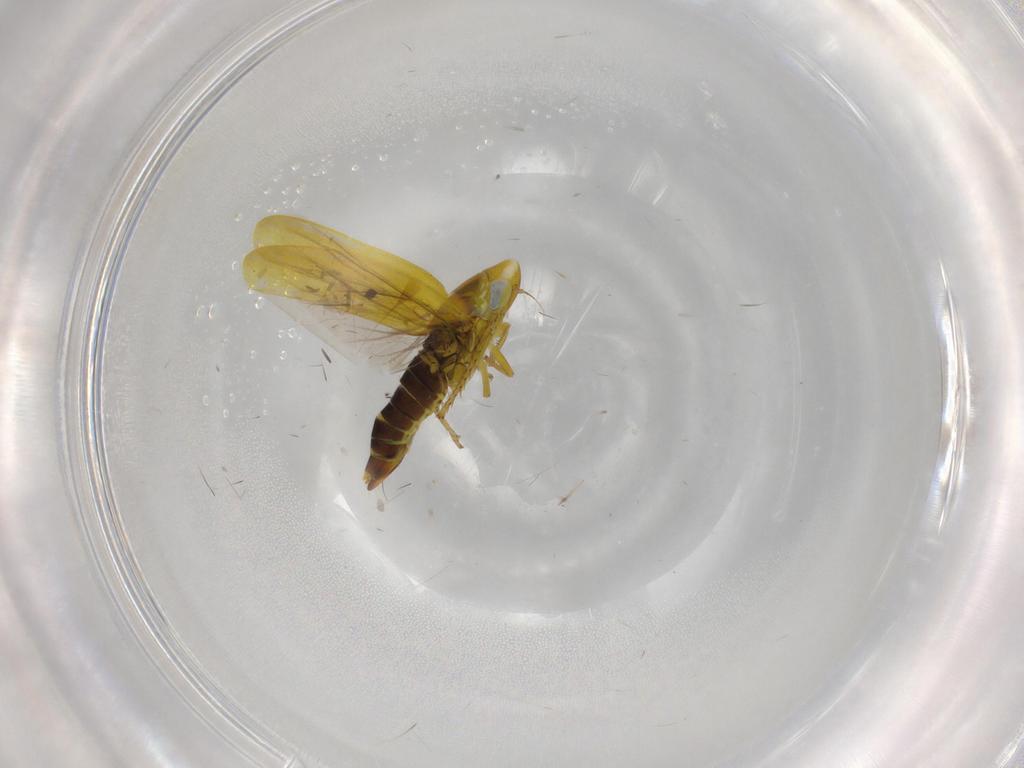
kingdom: Animalia
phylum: Arthropoda
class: Insecta
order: Hemiptera
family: Cicadellidae
